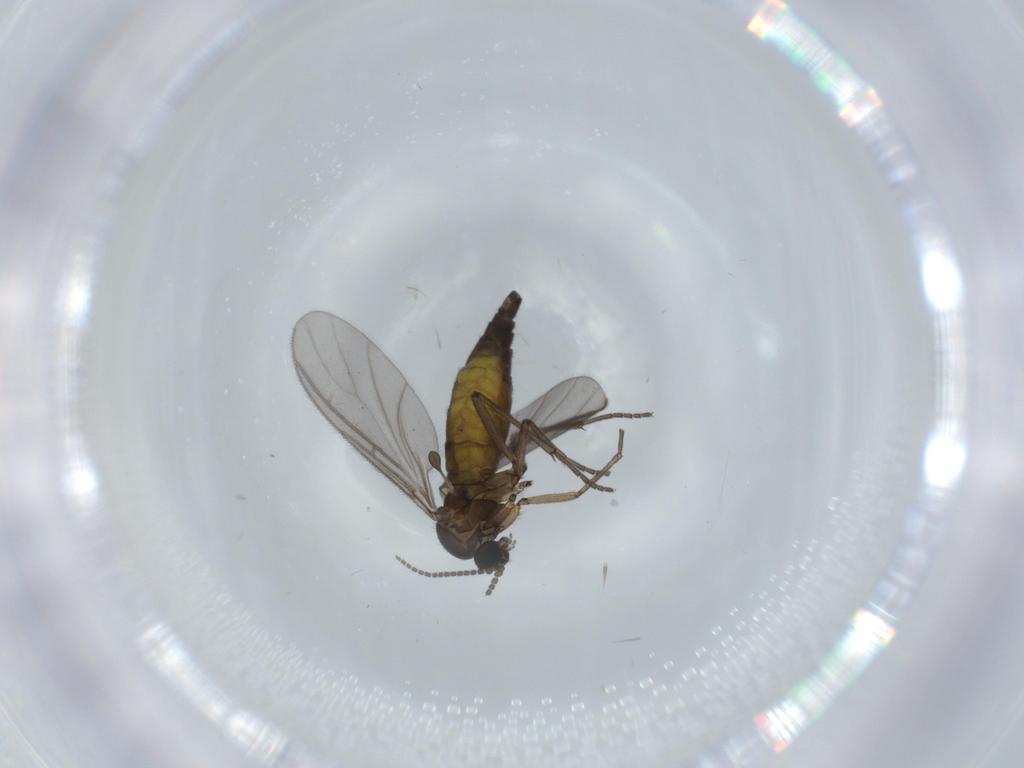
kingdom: Animalia
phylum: Arthropoda
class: Insecta
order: Diptera
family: Sciaridae
